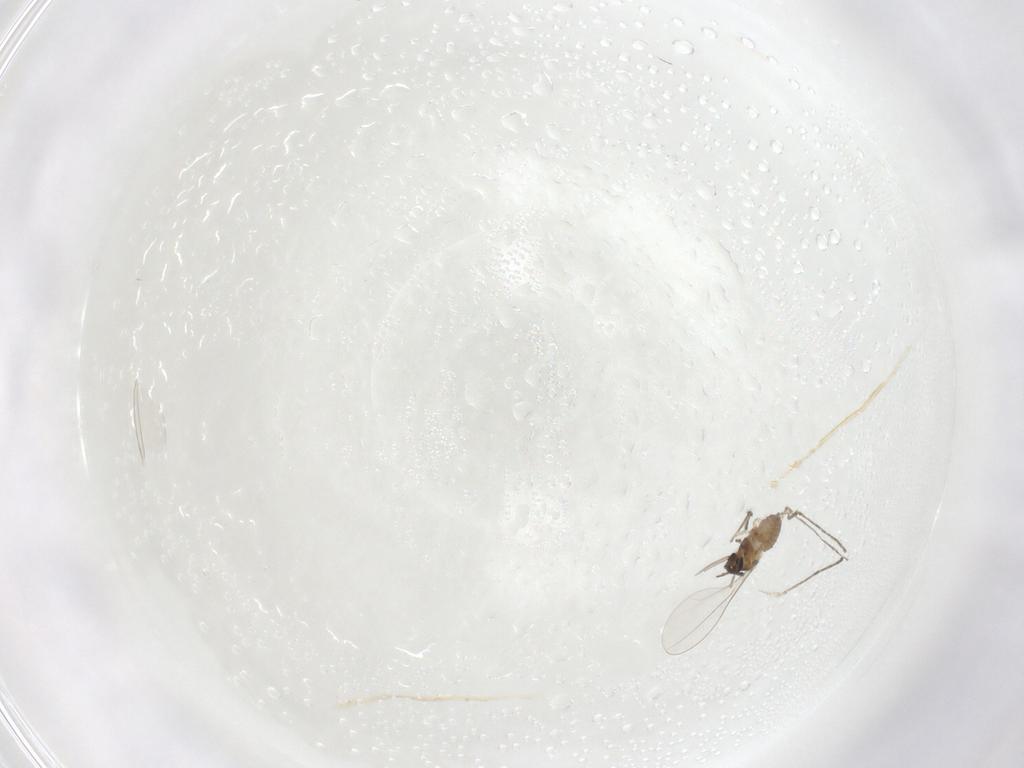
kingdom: Animalia
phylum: Arthropoda
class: Insecta
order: Diptera
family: Cecidomyiidae
